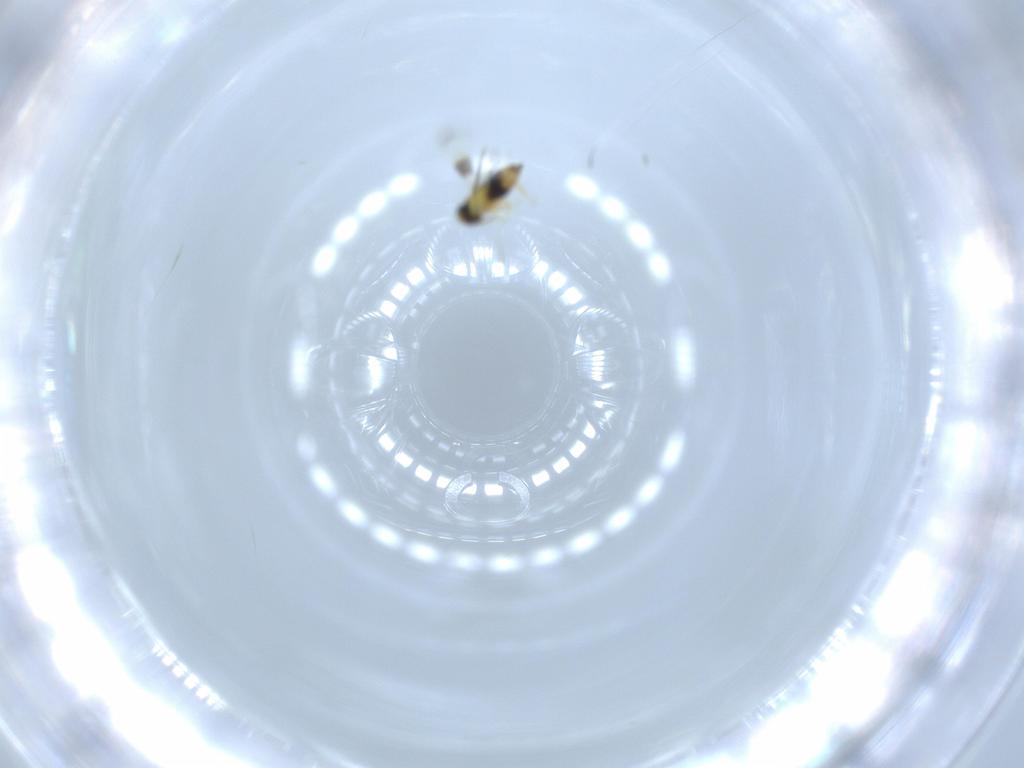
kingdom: Animalia
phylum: Arthropoda
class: Insecta
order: Hymenoptera
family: Signiphoridae
